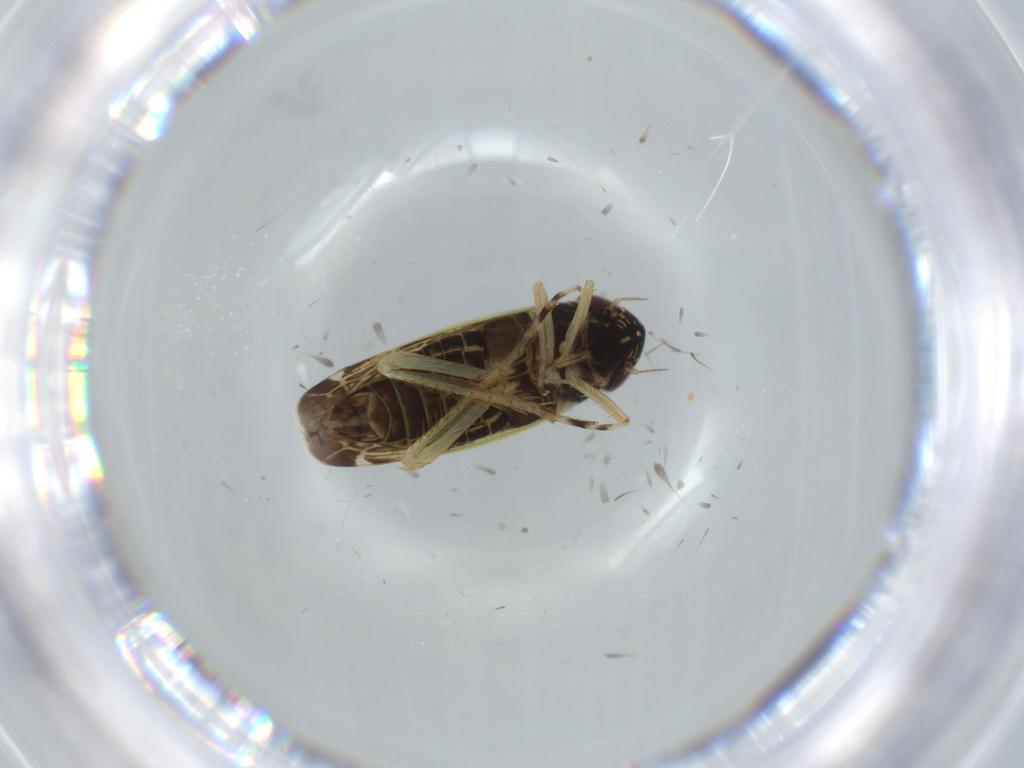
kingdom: Animalia
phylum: Arthropoda
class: Insecta
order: Hemiptera
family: Cicadellidae
